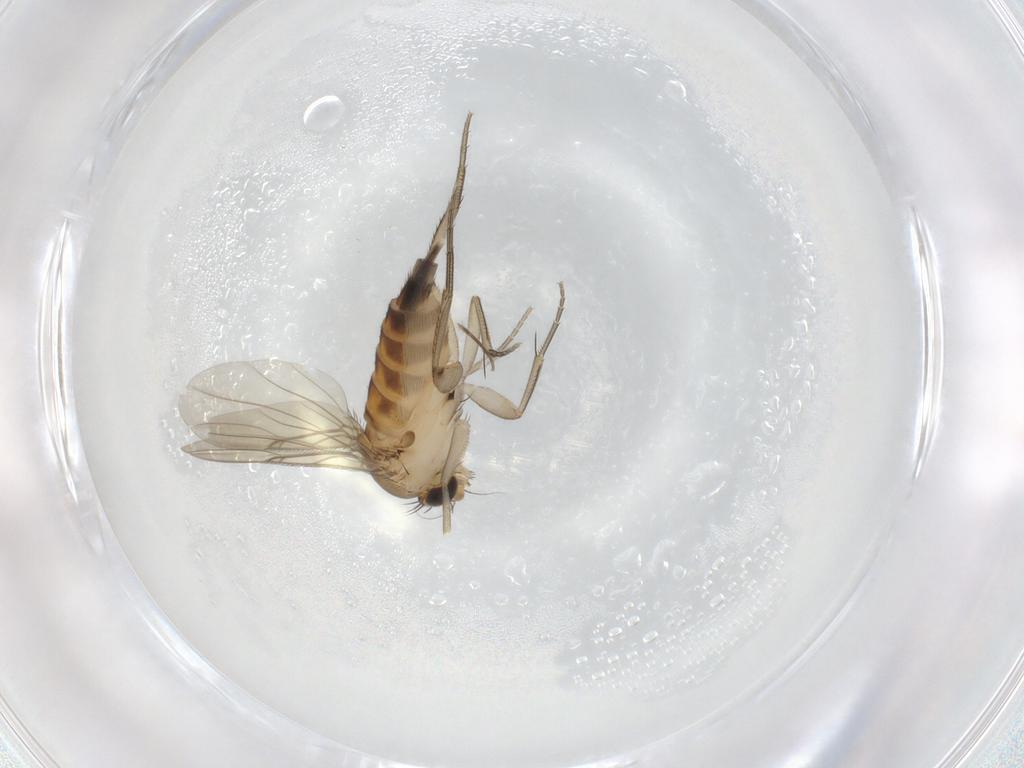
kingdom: Animalia
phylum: Arthropoda
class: Insecta
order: Diptera
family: Phoridae
